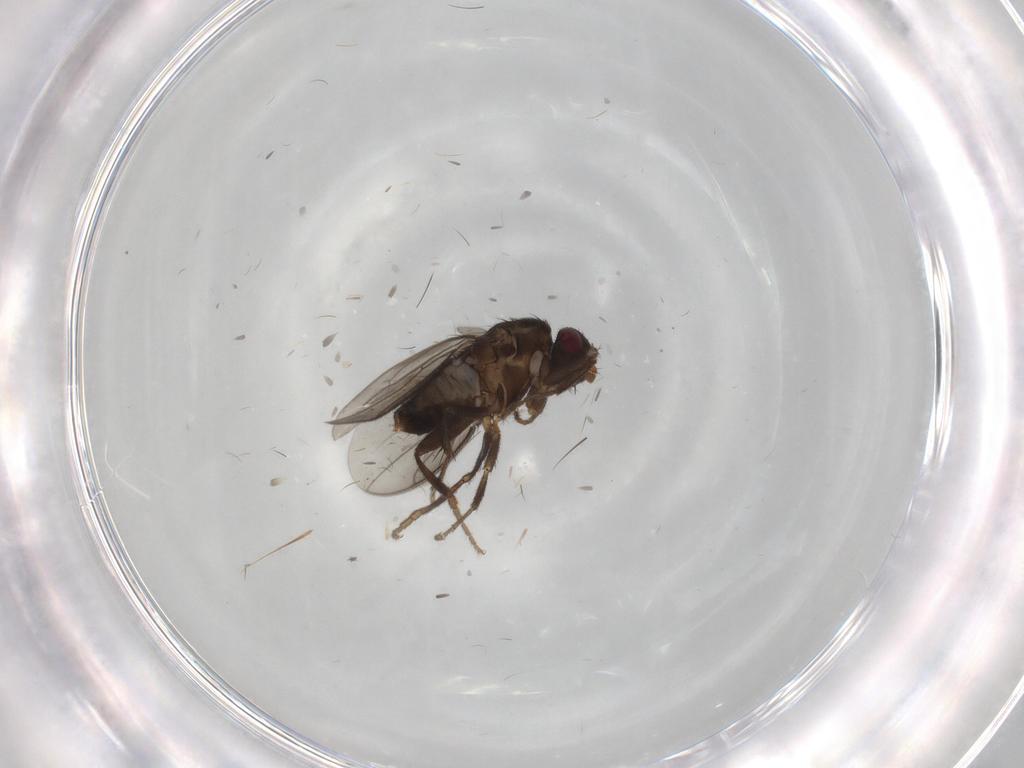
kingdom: Animalia
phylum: Arthropoda
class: Insecta
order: Diptera
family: Sphaeroceridae
